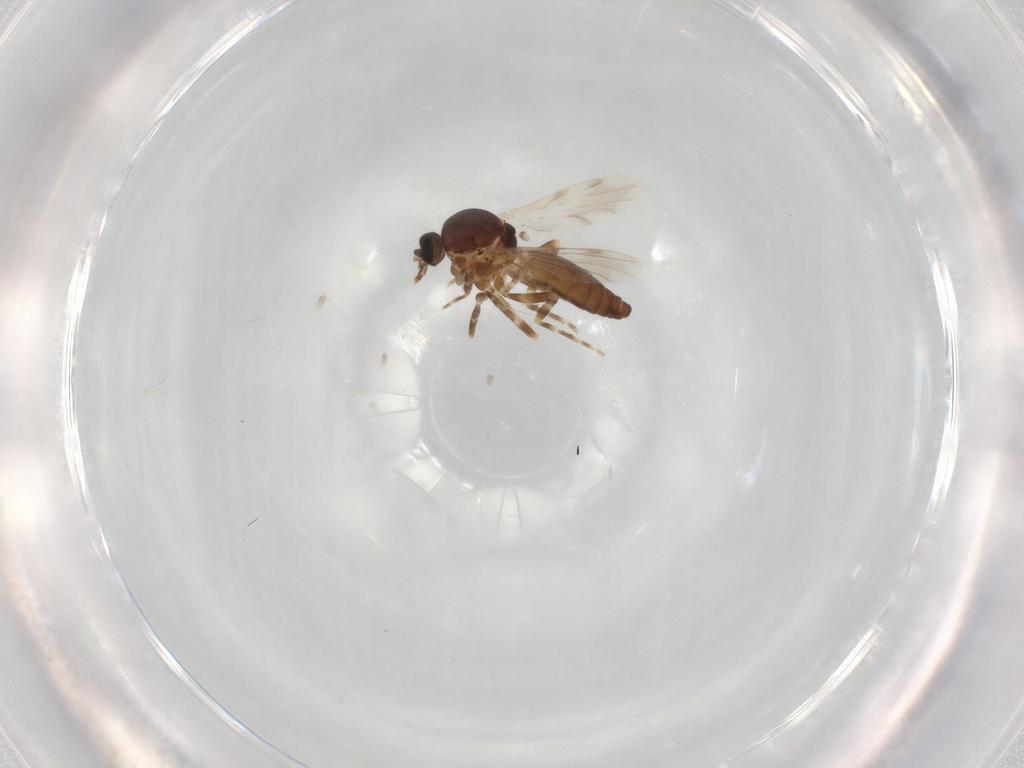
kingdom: Animalia
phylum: Arthropoda
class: Insecta
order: Diptera
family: Ceratopogonidae
